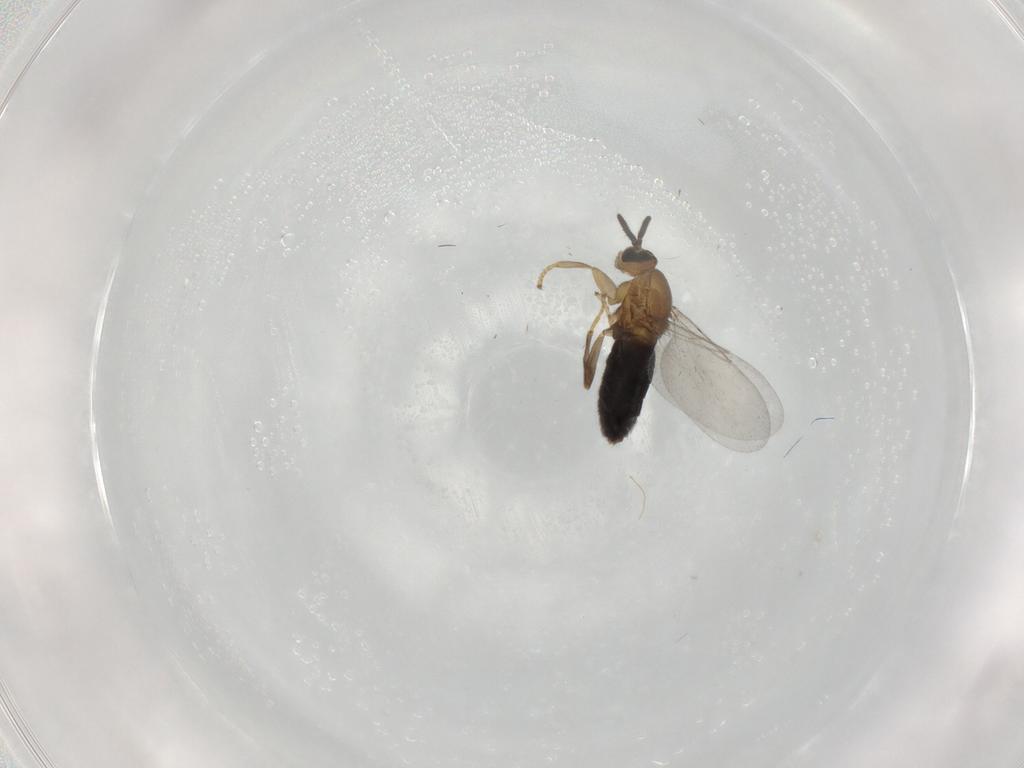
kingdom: Animalia
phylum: Arthropoda
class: Insecta
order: Diptera
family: Scatopsidae
